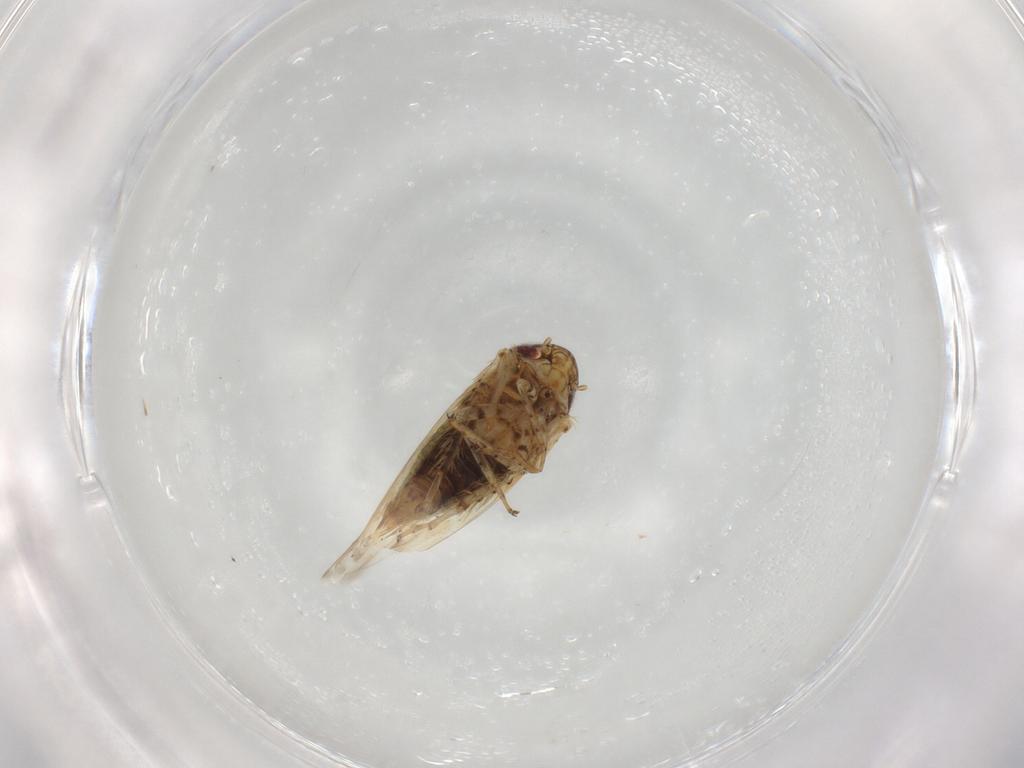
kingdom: Animalia
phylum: Arthropoda
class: Insecta
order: Hemiptera
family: Cicadellidae
